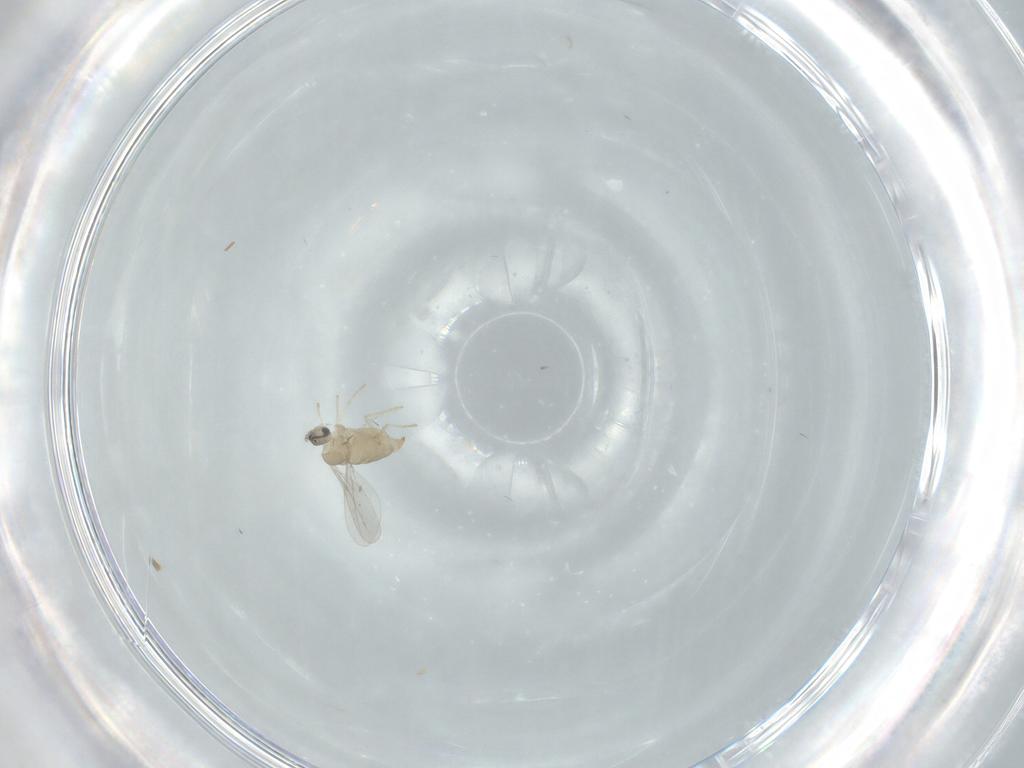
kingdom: Animalia
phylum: Arthropoda
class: Insecta
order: Diptera
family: Cecidomyiidae
